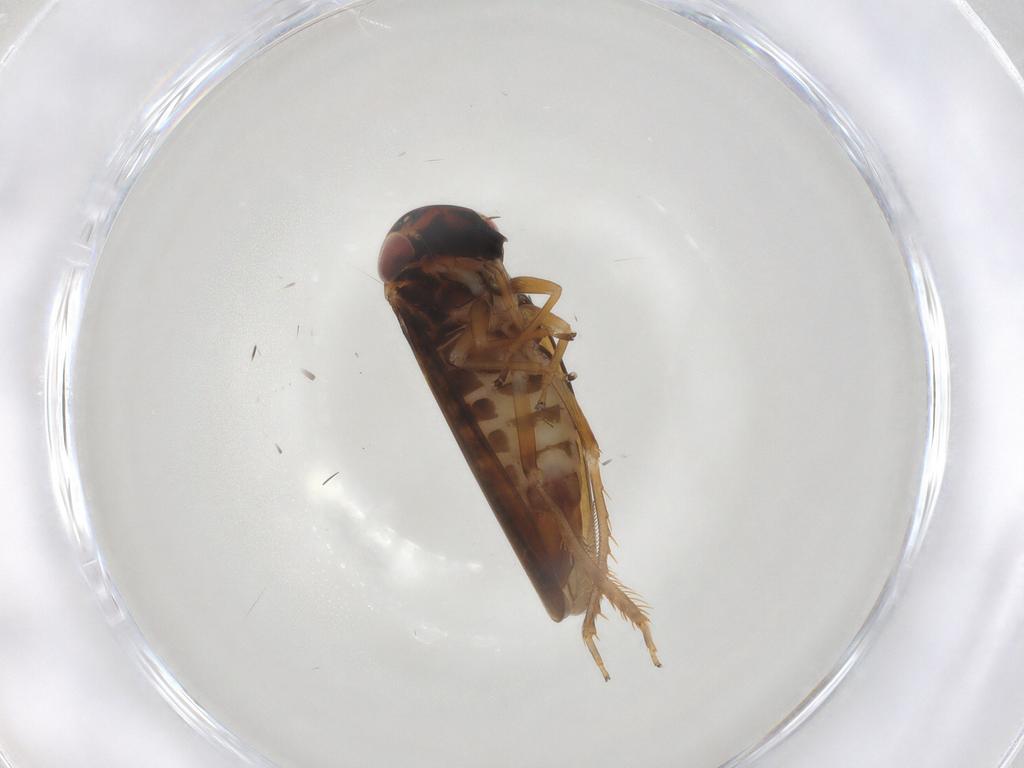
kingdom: Animalia
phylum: Arthropoda
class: Insecta
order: Hemiptera
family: Cicadellidae
